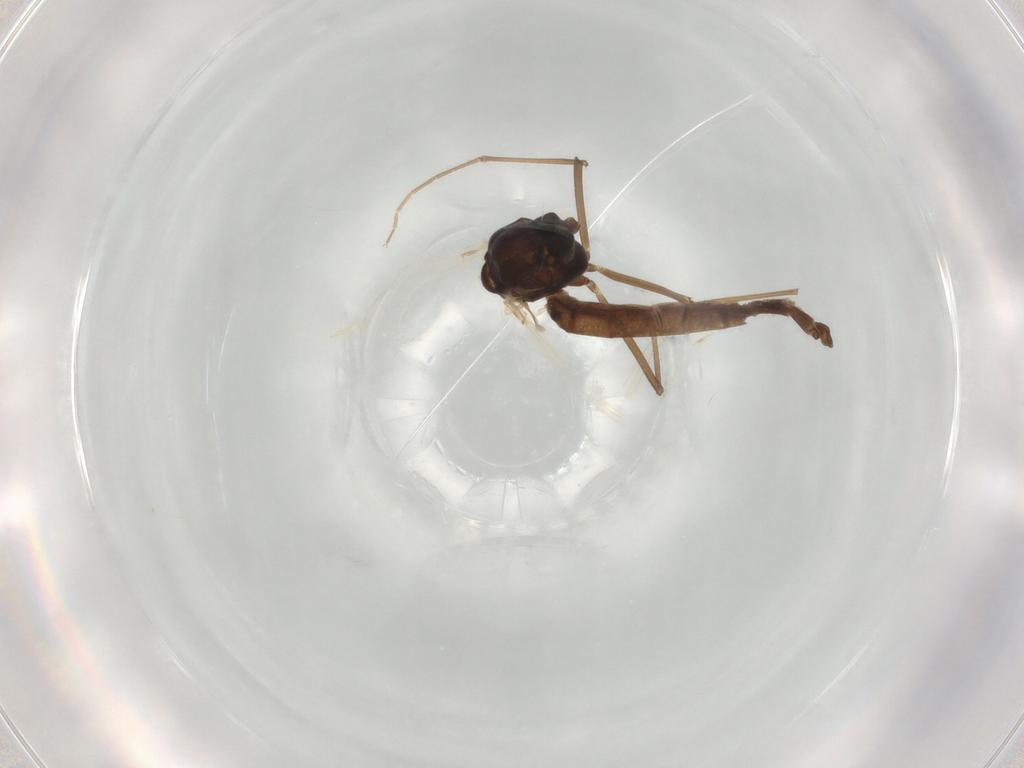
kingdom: Animalia
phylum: Arthropoda
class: Insecta
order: Diptera
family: Chironomidae
